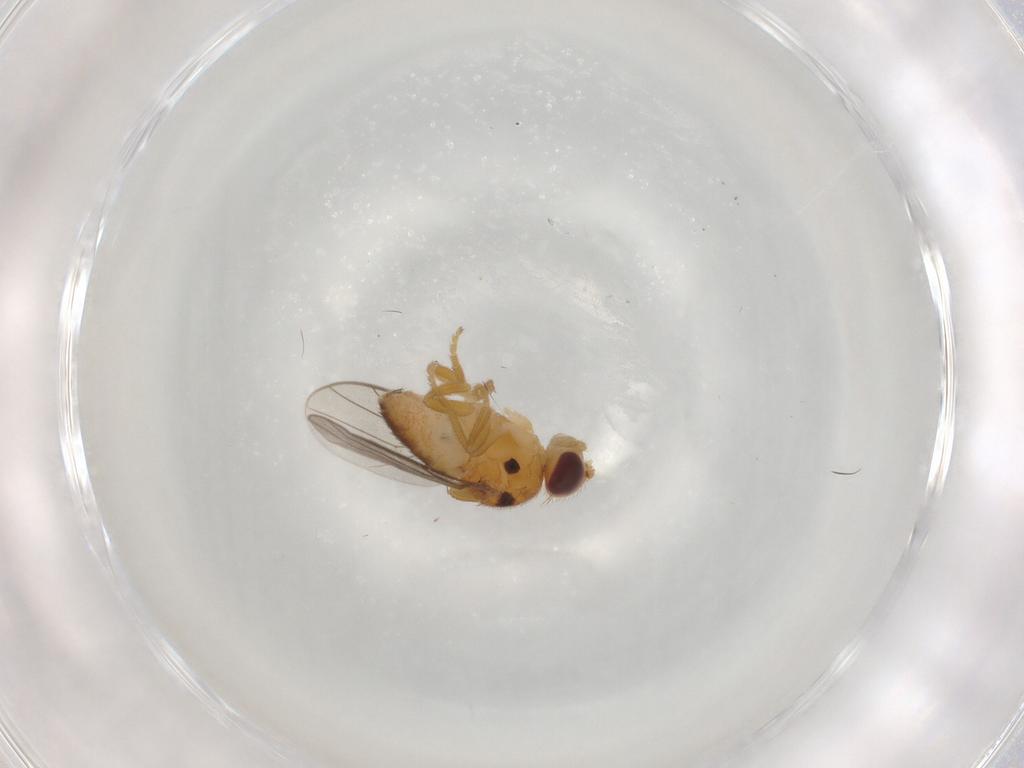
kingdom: Animalia
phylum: Arthropoda
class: Insecta
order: Diptera
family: Chloropidae
